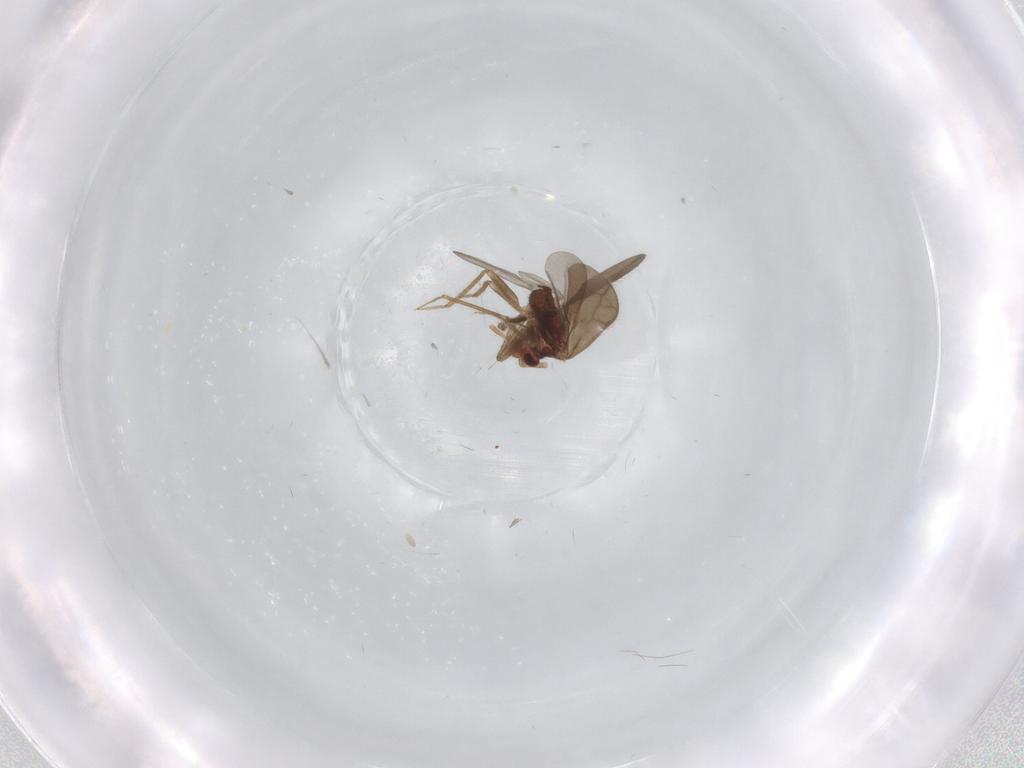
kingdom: Animalia
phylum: Arthropoda
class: Insecta
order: Hemiptera
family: Ceratocombidae
